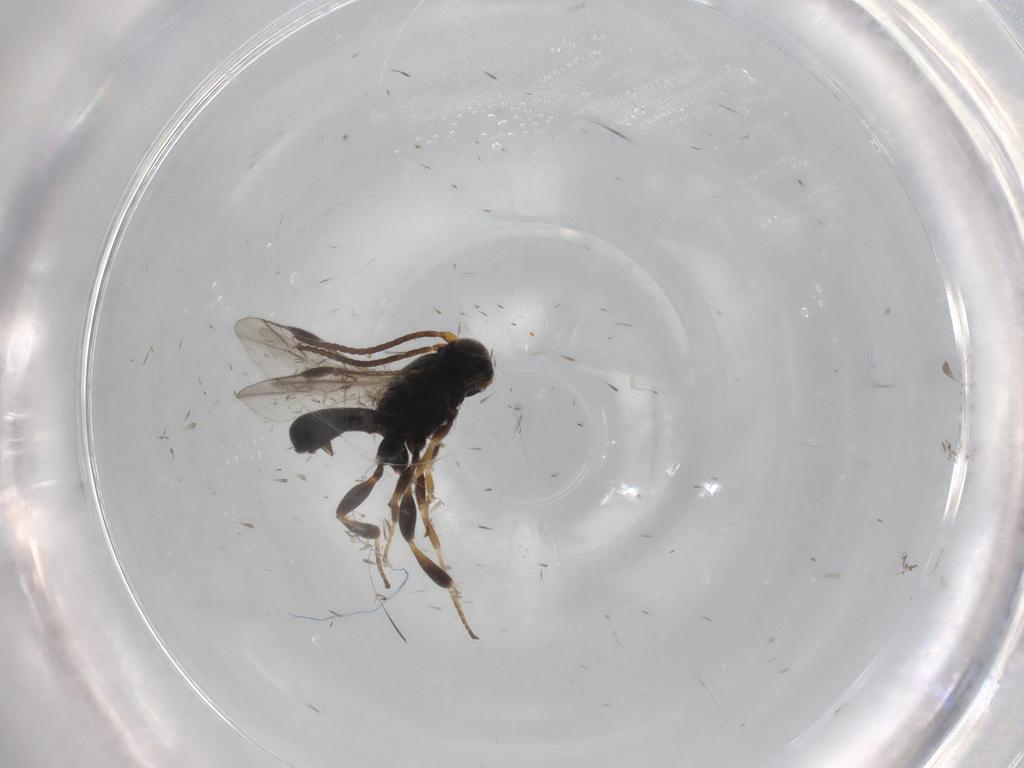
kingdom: Animalia
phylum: Arthropoda
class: Insecta
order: Hymenoptera
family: Braconidae
